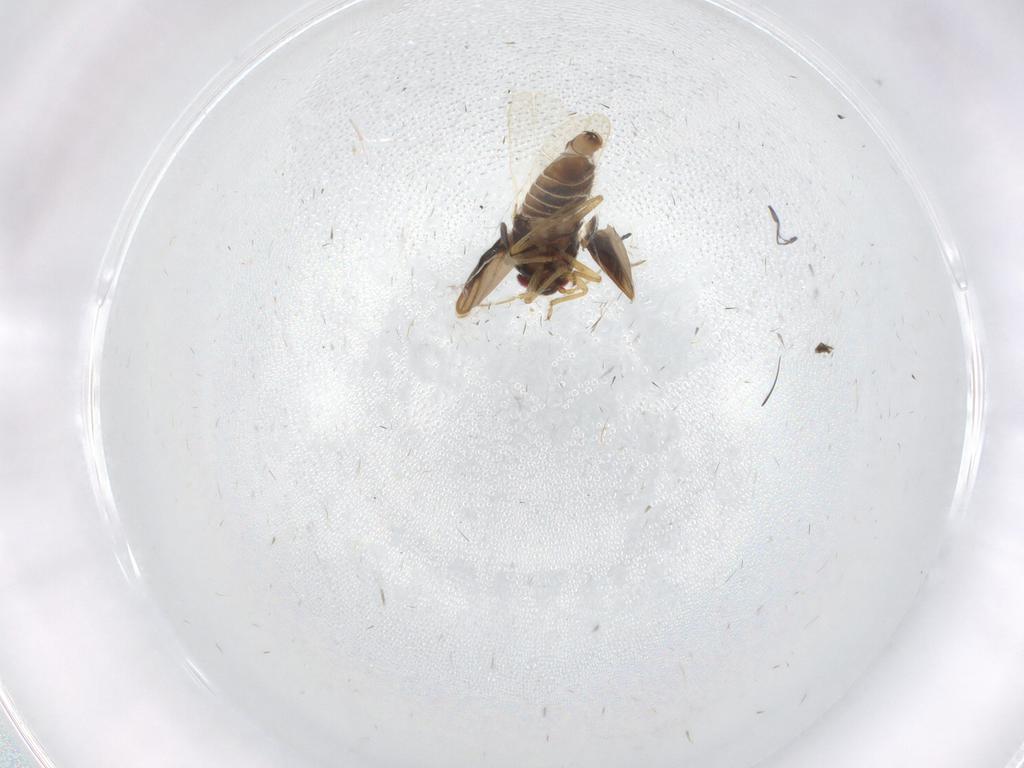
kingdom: Animalia
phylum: Arthropoda
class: Insecta
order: Hemiptera
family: Schizopteridae
